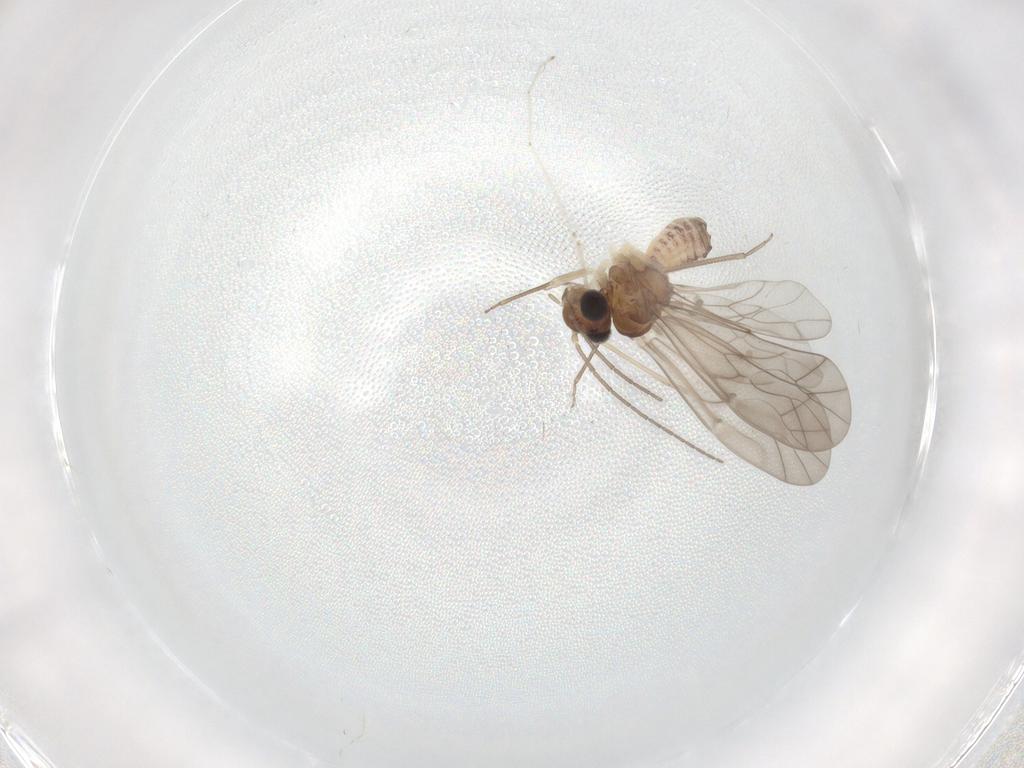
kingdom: Animalia
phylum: Arthropoda
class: Insecta
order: Psocodea
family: Peripsocidae
